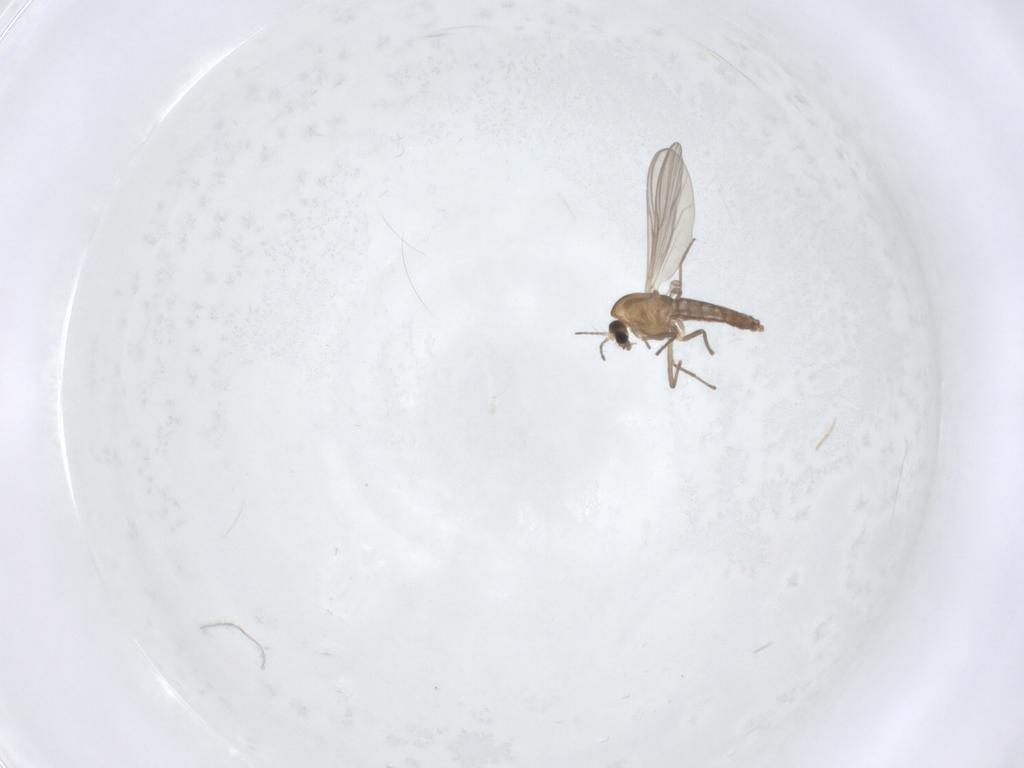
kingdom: Animalia
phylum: Arthropoda
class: Insecta
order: Diptera
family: Chironomidae
